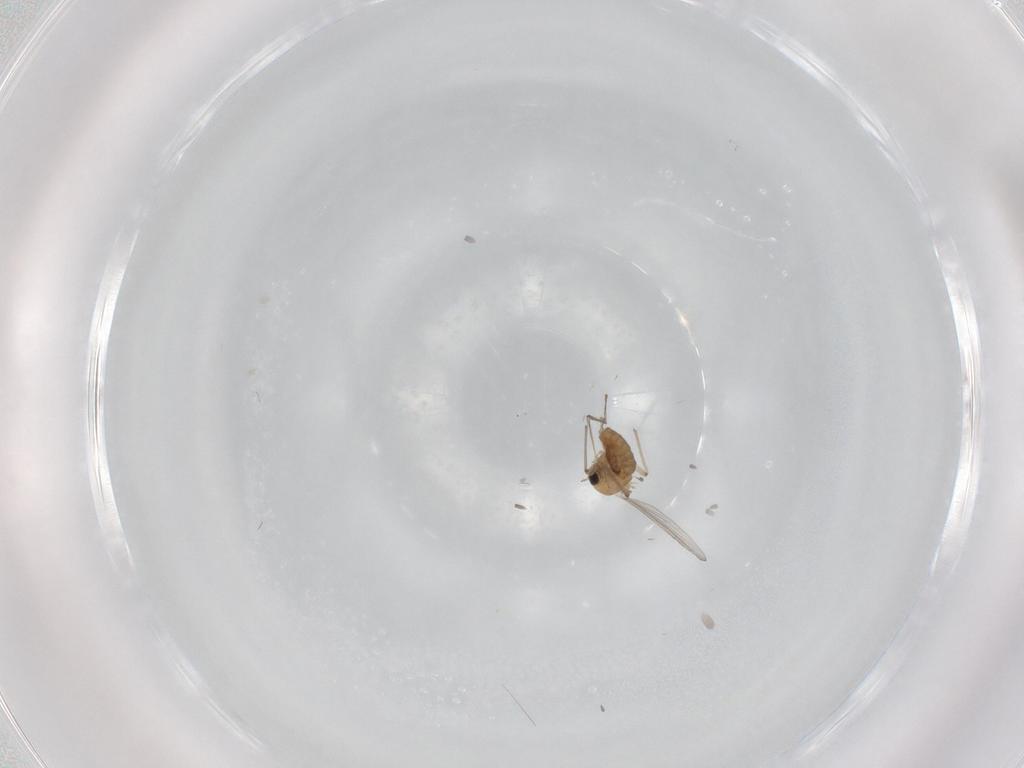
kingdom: Animalia
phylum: Arthropoda
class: Insecta
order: Diptera
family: Chironomidae
